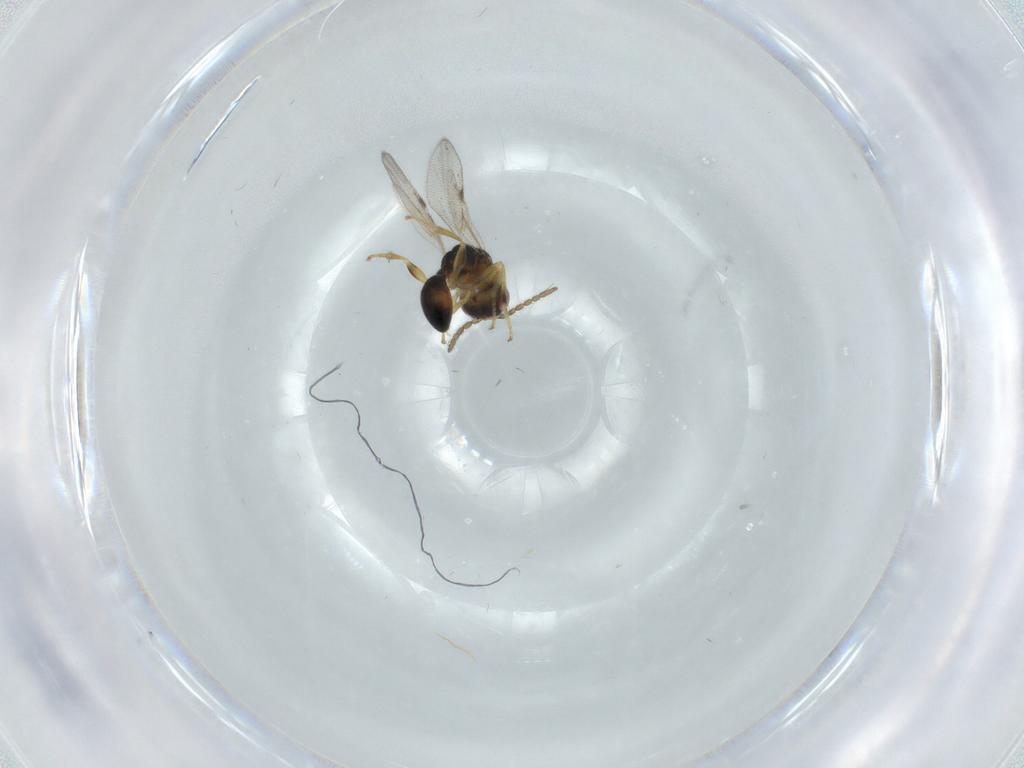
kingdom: Animalia
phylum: Arthropoda
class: Insecta
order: Hymenoptera
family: Eurytomidae
